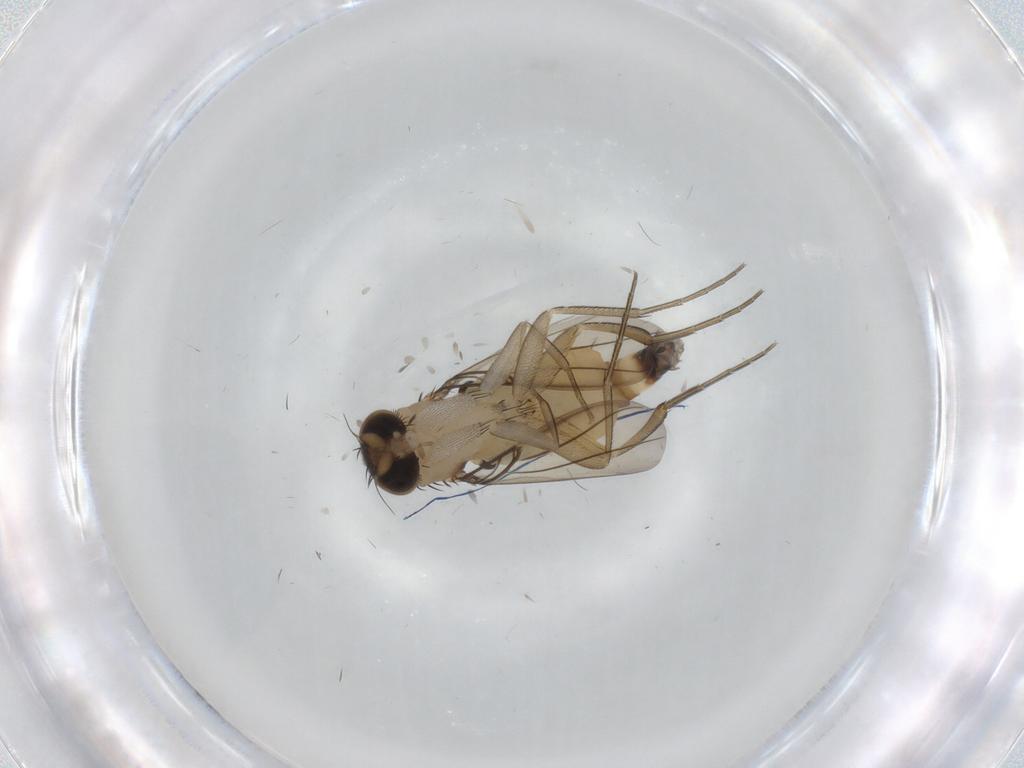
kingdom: Animalia
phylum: Arthropoda
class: Insecta
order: Diptera
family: Phoridae
